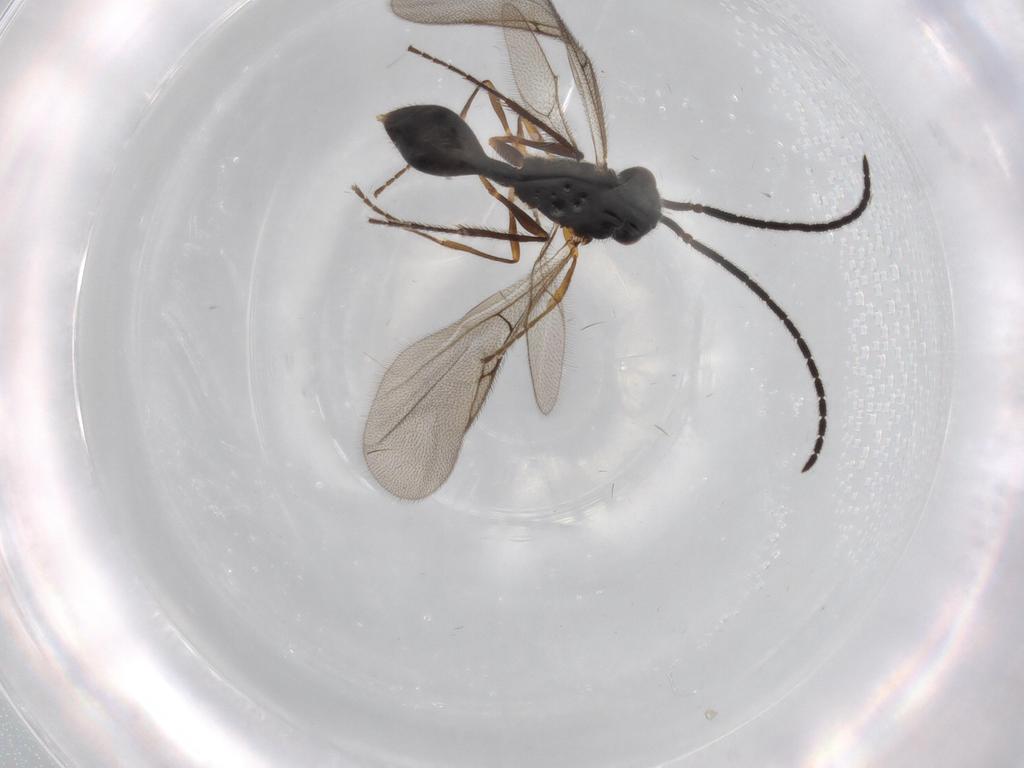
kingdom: Animalia
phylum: Arthropoda
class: Insecta
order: Hymenoptera
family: Diapriidae
